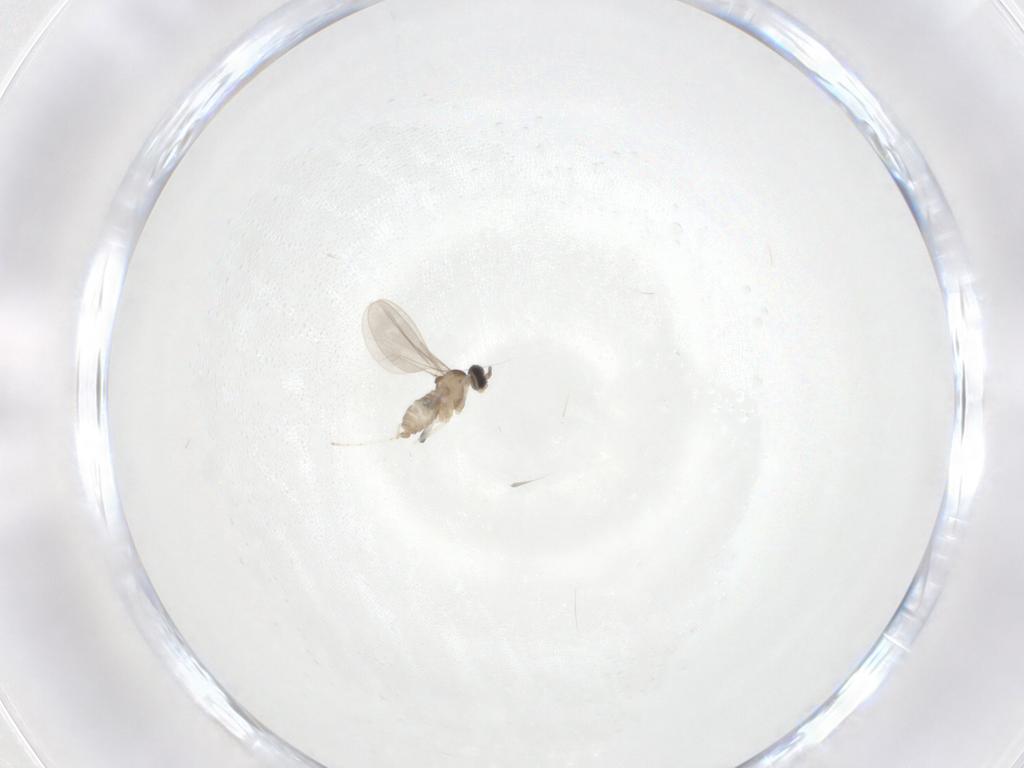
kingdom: Animalia
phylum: Arthropoda
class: Insecta
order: Diptera
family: Cecidomyiidae
